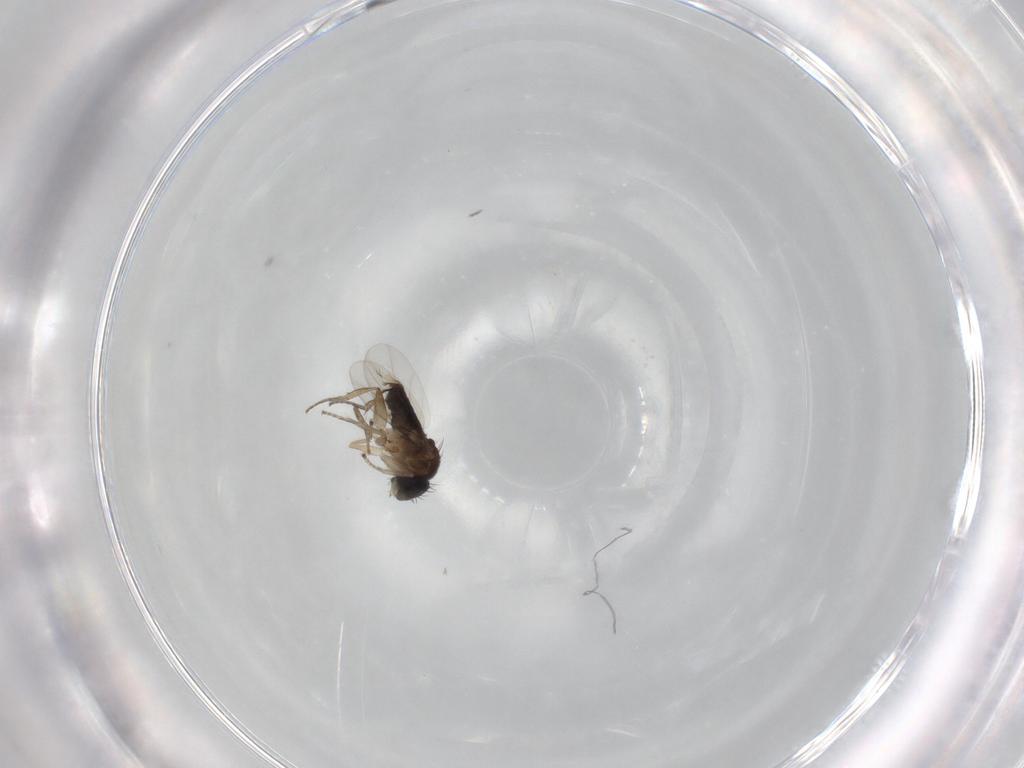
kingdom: Animalia
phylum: Arthropoda
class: Insecta
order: Diptera
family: Phoridae
